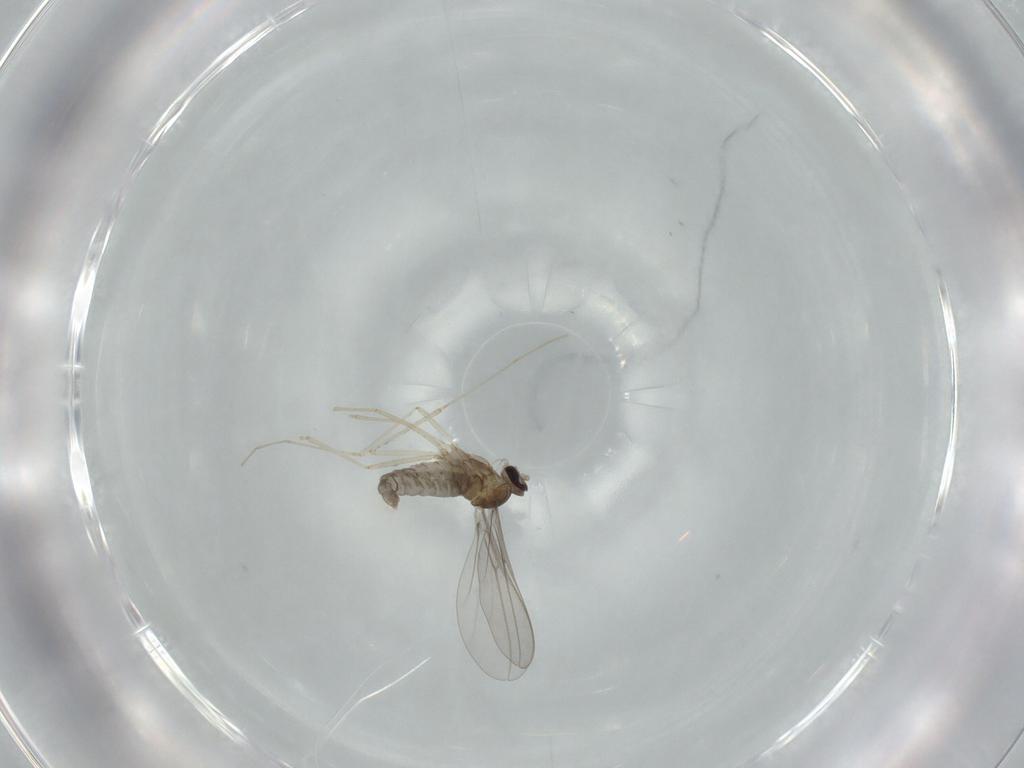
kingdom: Animalia
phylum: Arthropoda
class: Insecta
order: Diptera
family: Cecidomyiidae
